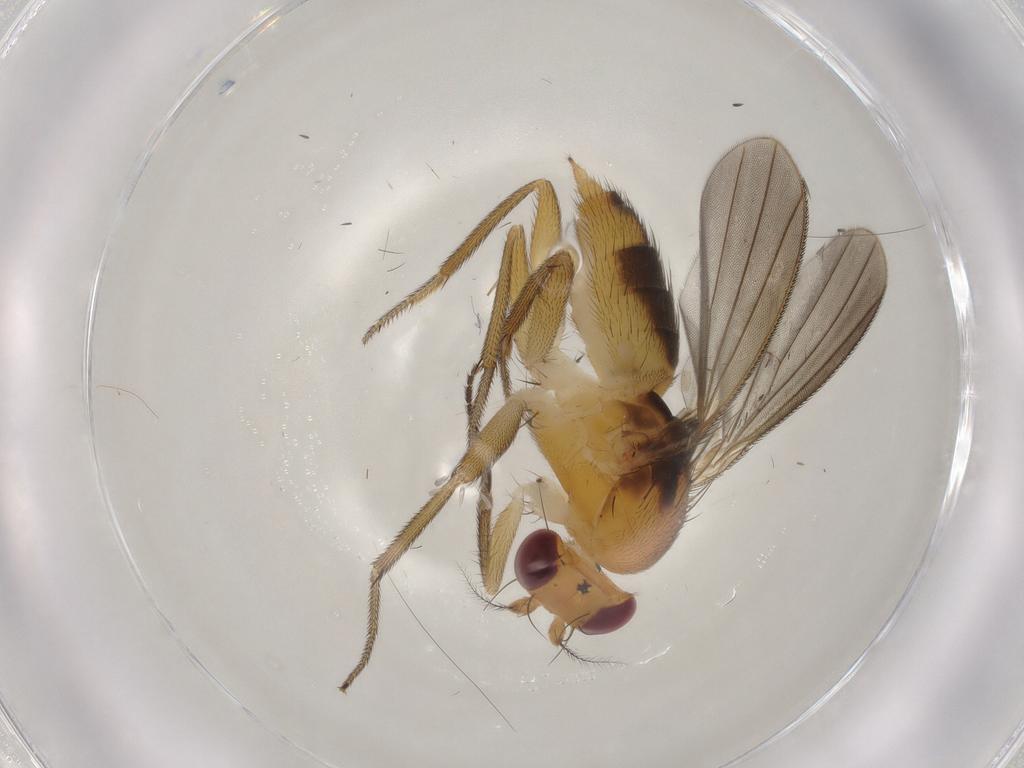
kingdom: Animalia
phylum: Arthropoda
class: Insecta
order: Diptera
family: Clusiidae
